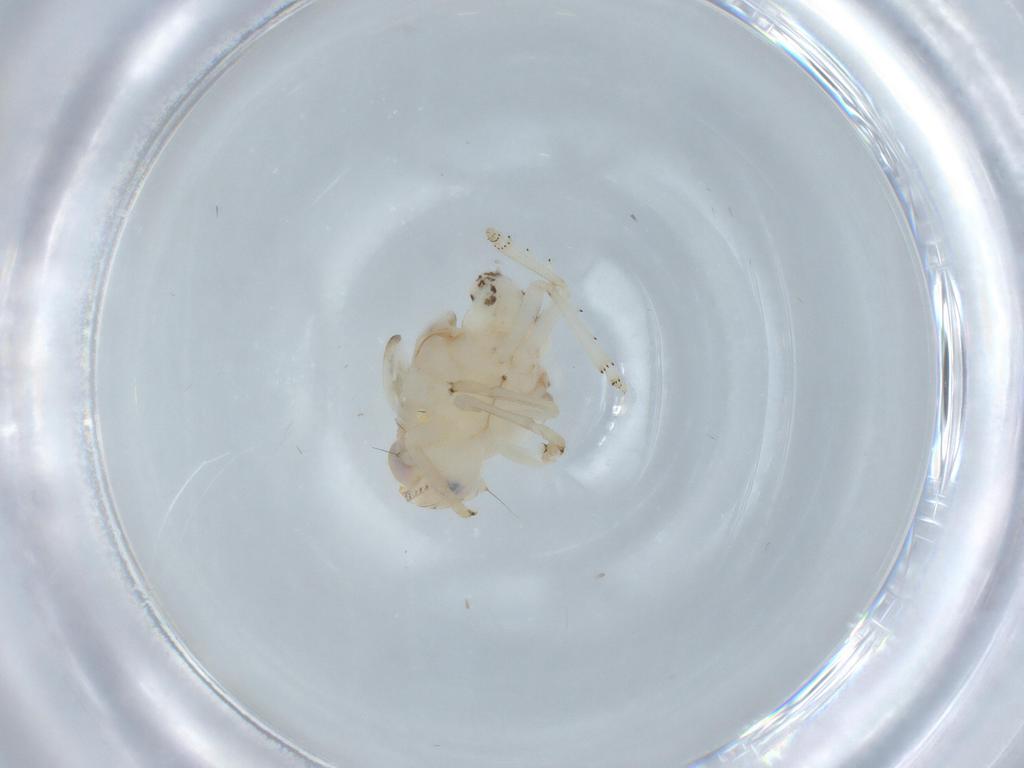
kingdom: Animalia
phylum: Arthropoda
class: Insecta
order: Hemiptera
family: Nogodinidae
